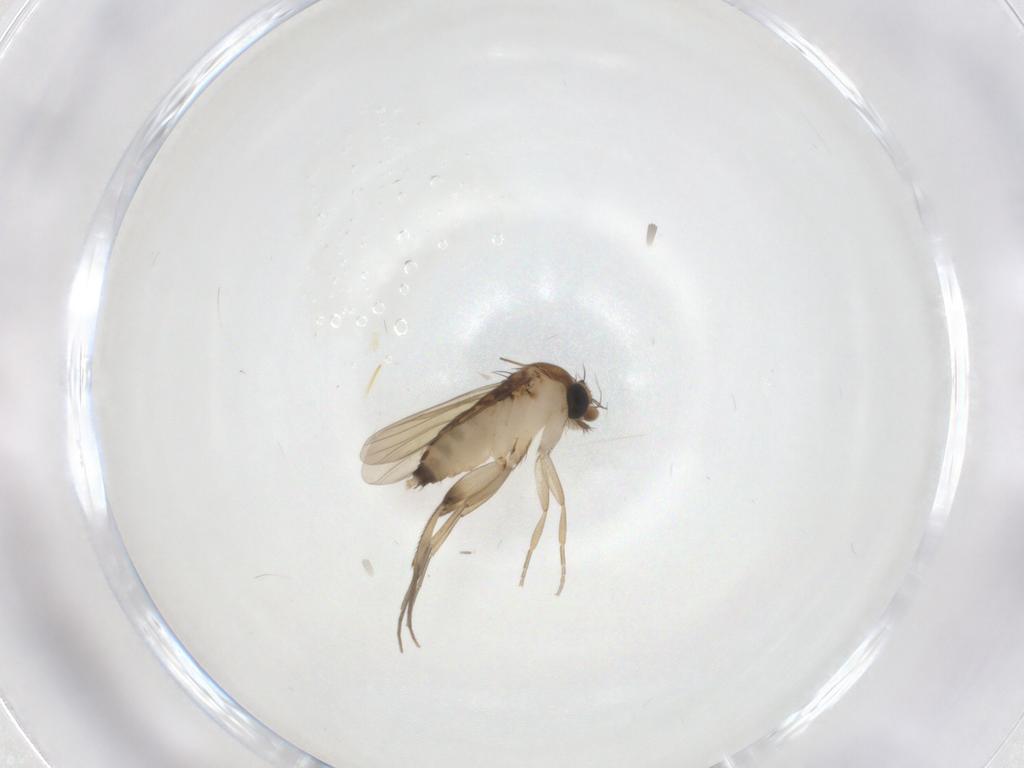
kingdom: Animalia
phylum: Arthropoda
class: Insecta
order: Diptera
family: Phoridae
